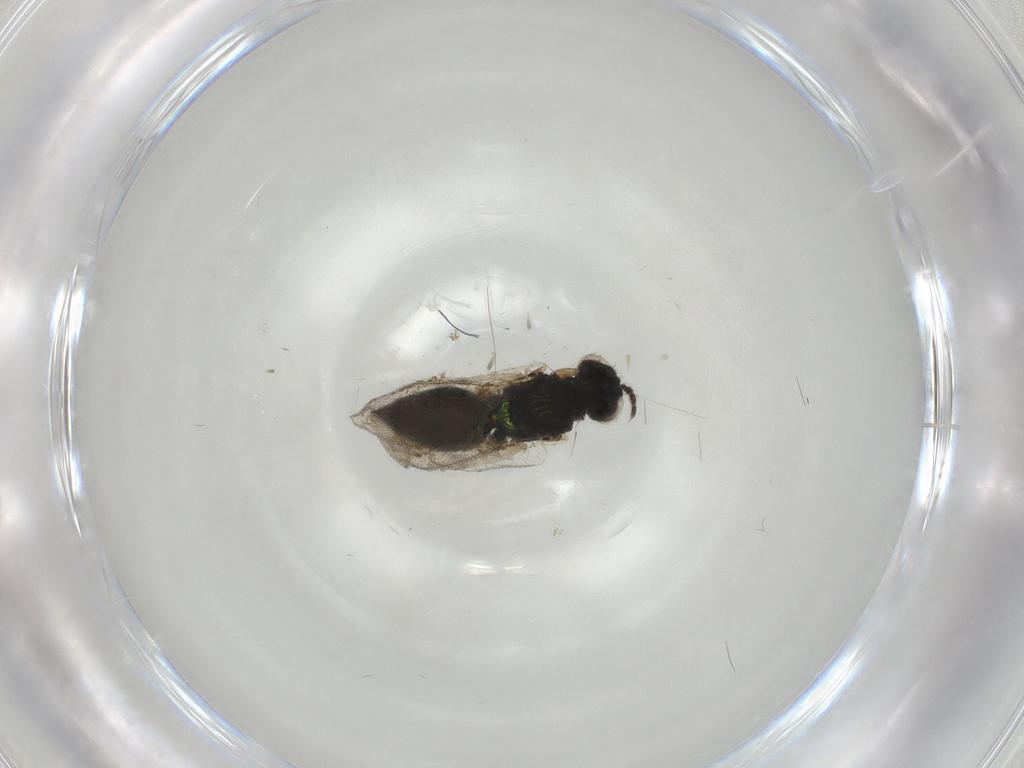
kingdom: Animalia
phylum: Arthropoda
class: Insecta
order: Hymenoptera
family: Eulophidae
